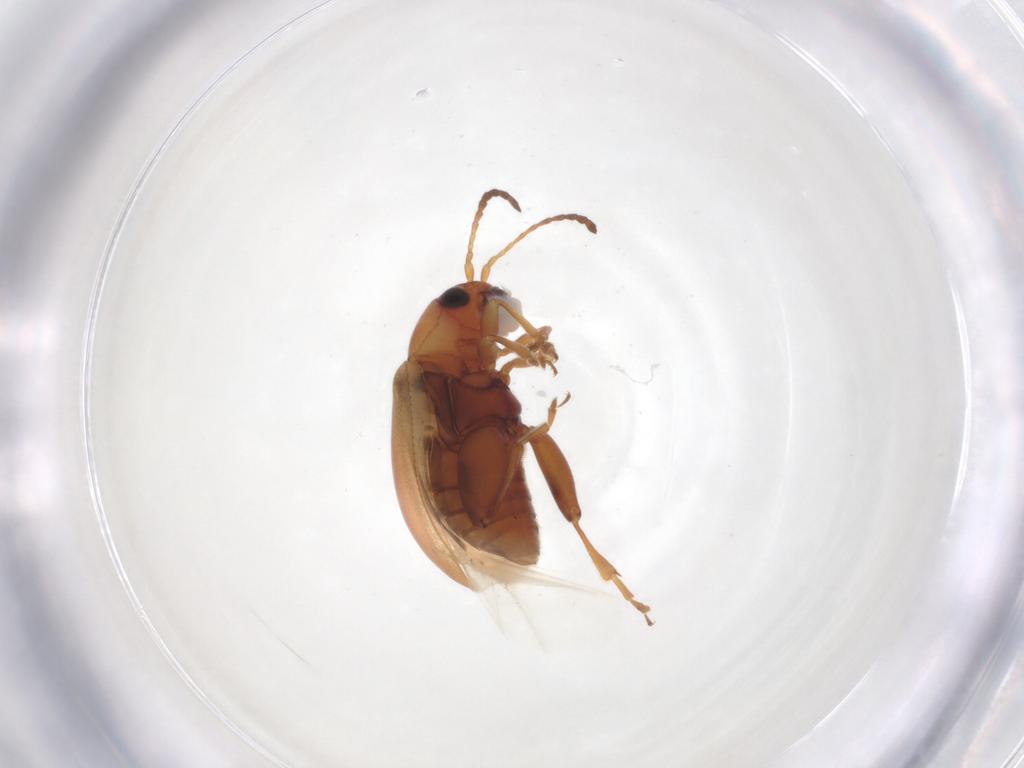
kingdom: Animalia
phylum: Arthropoda
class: Insecta
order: Coleoptera
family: Chrysomelidae
